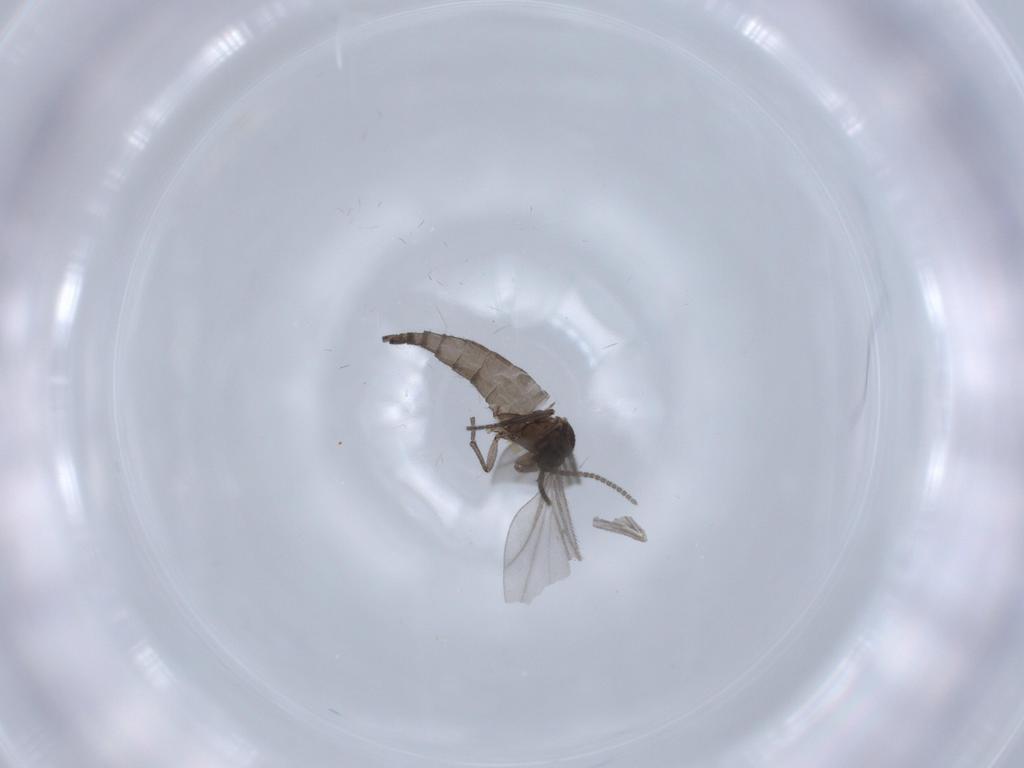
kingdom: Animalia
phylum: Arthropoda
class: Insecta
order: Diptera
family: Sciaridae
